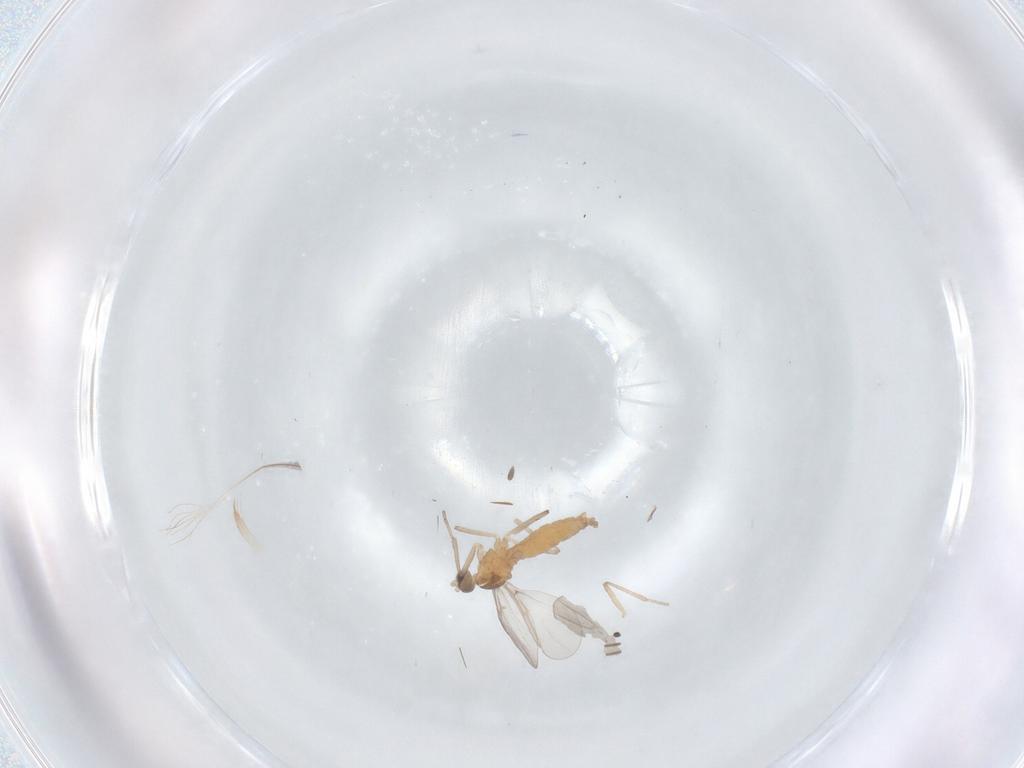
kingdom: Animalia
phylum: Arthropoda
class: Insecta
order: Diptera
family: Cecidomyiidae
